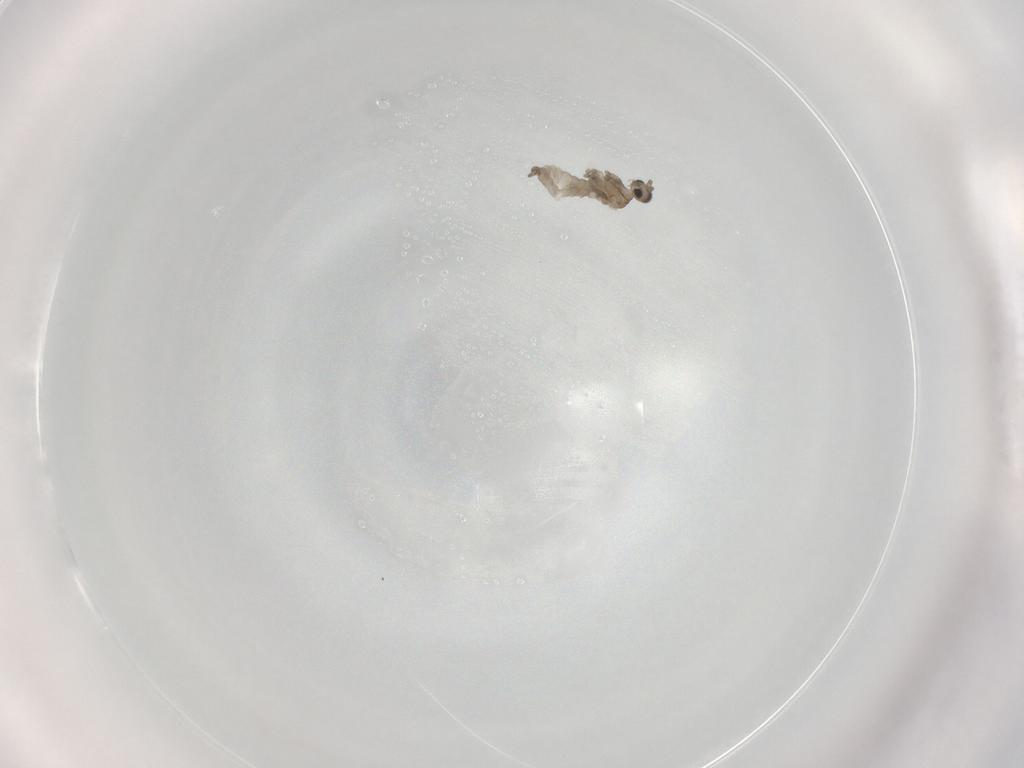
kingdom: Animalia
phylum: Arthropoda
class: Insecta
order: Diptera
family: Cecidomyiidae
